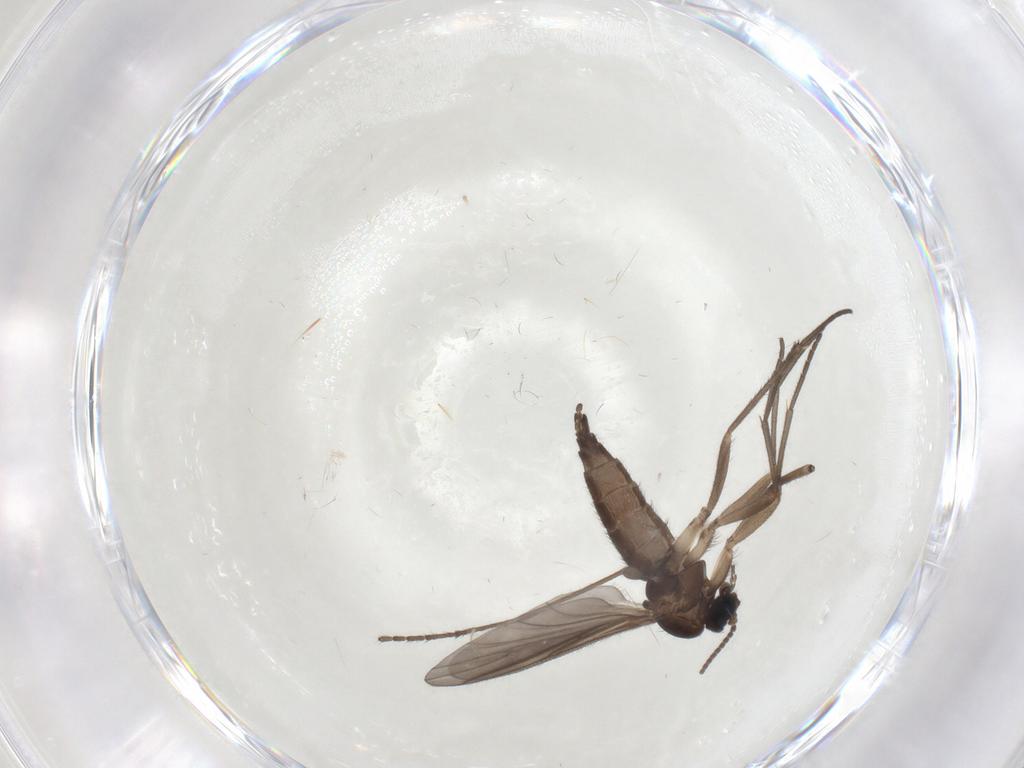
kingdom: Animalia
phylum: Arthropoda
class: Insecta
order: Diptera
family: Sciaridae
